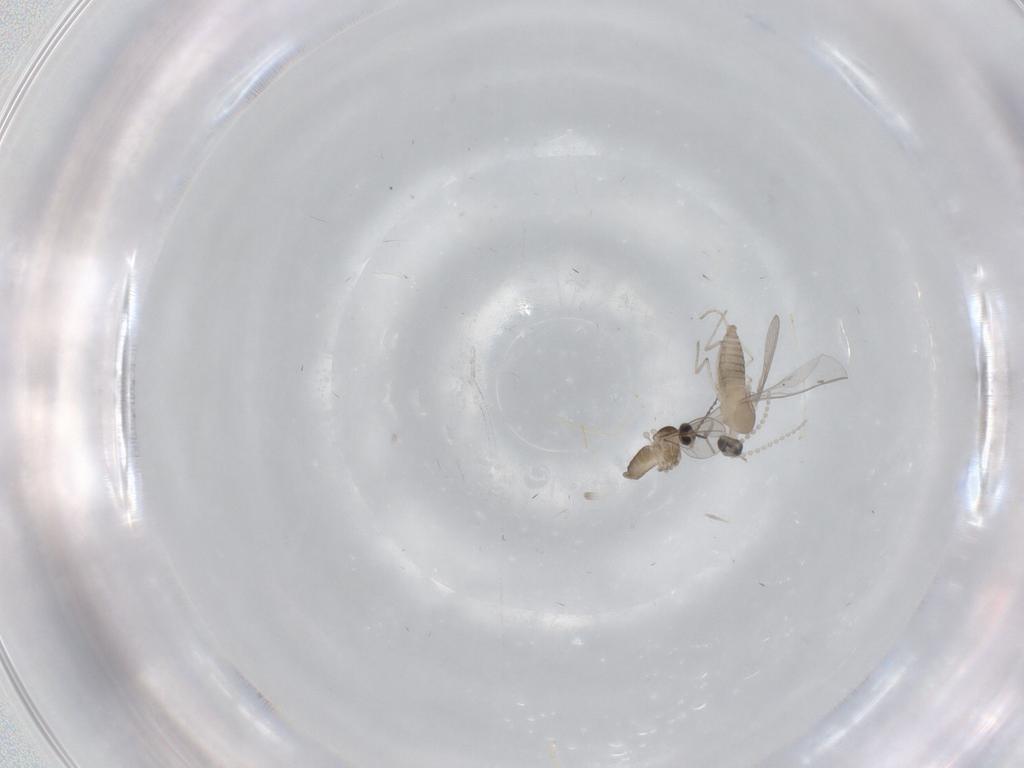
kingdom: Animalia
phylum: Arthropoda
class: Insecta
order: Diptera
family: Cecidomyiidae
